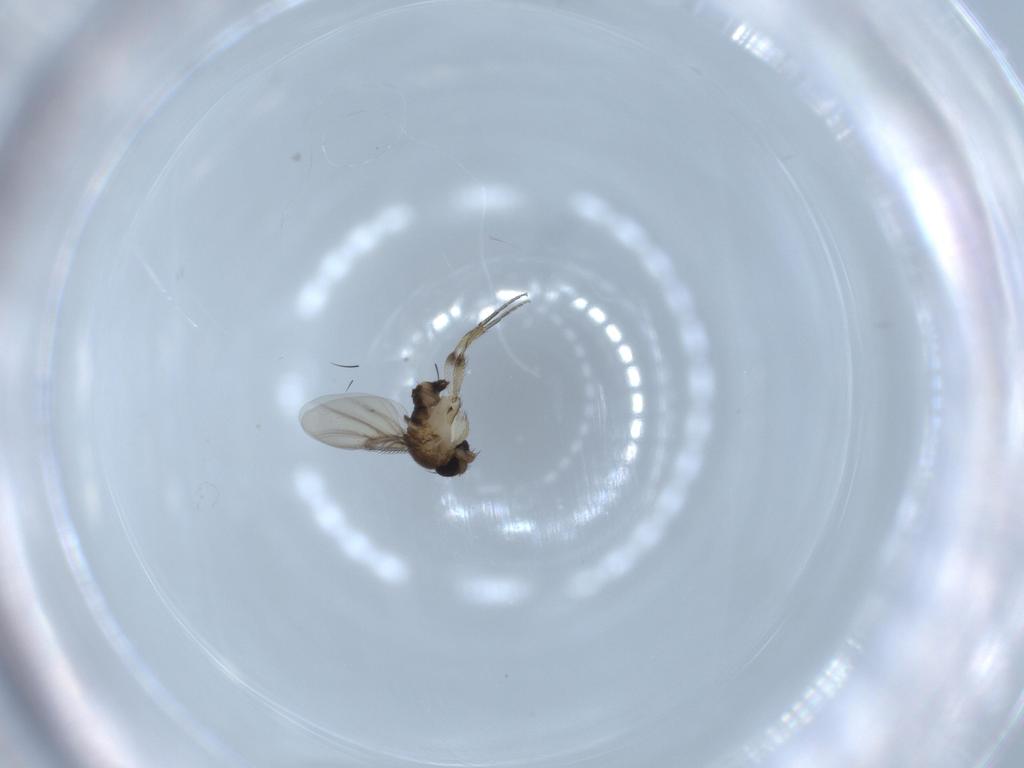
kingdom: Animalia
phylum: Arthropoda
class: Insecta
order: Diptera
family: Phoridae
